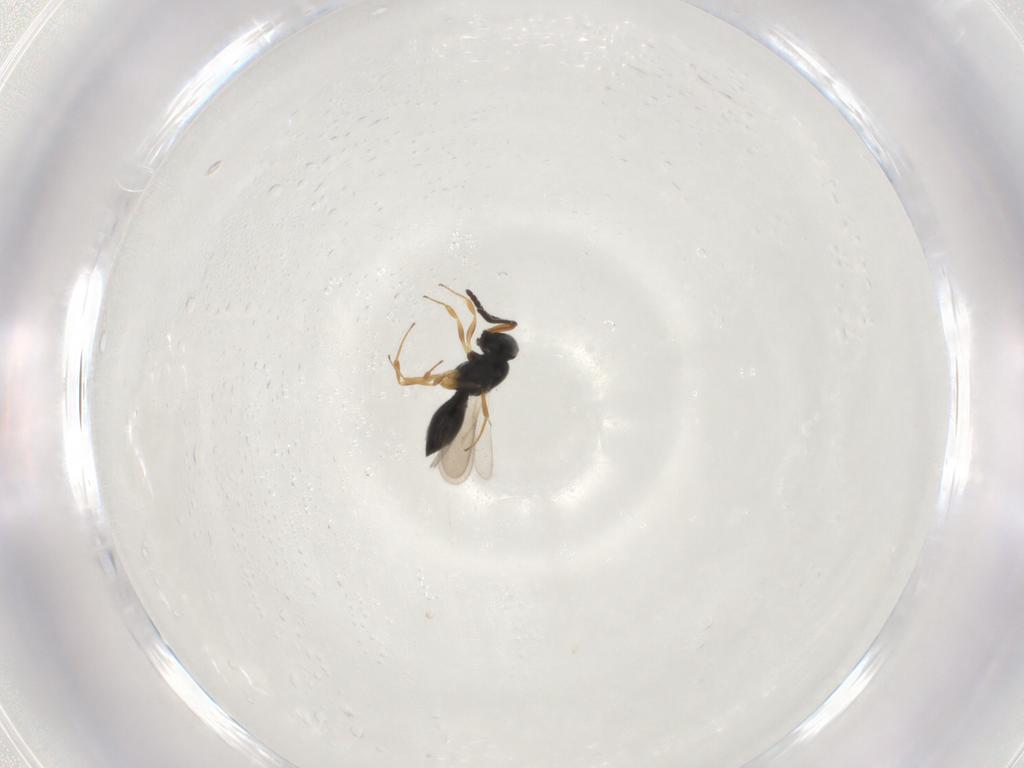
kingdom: Animalia
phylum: Arthropoda
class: Insecta
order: Hymenoptera
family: Scelionidae
